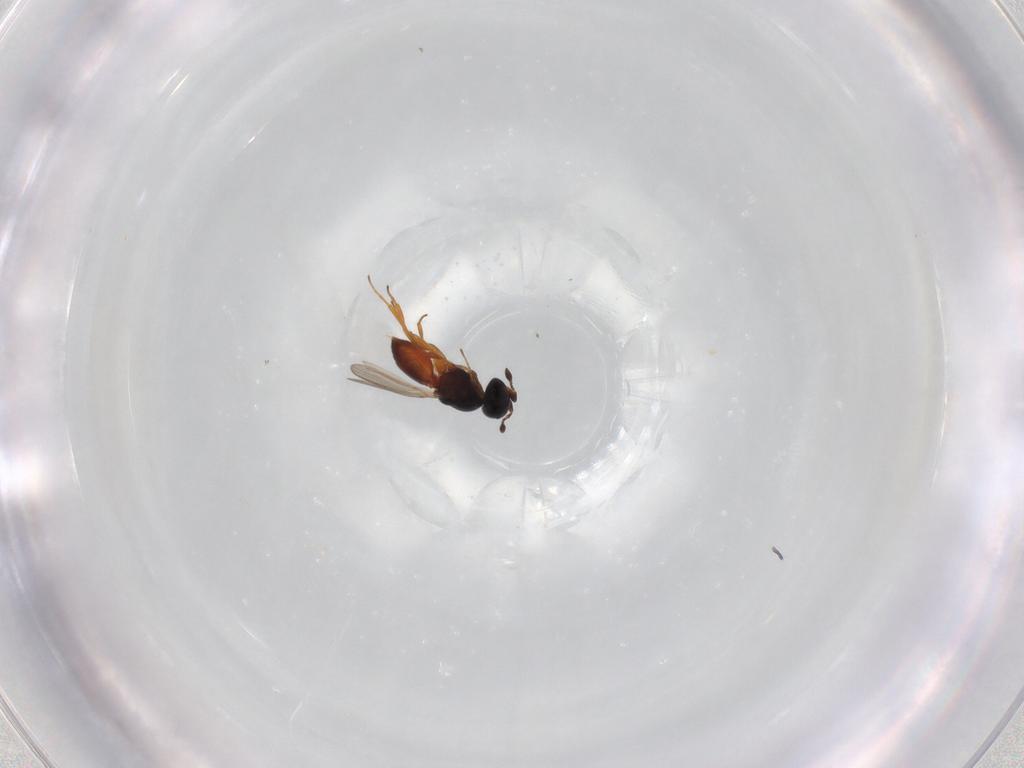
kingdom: Animalia
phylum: Arthropoda
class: Insecta
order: Hymenoptera
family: Platygastridae
